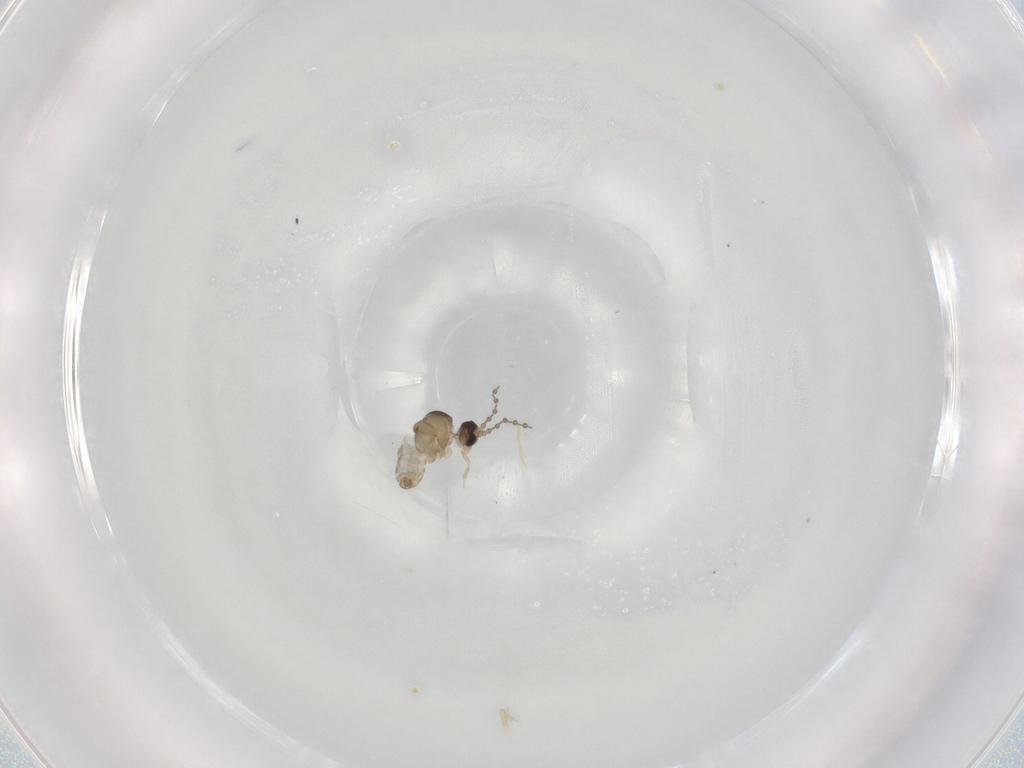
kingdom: Animalia
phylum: Arthropoda
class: Insecta
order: Diptera
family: Cecidomyiidae
